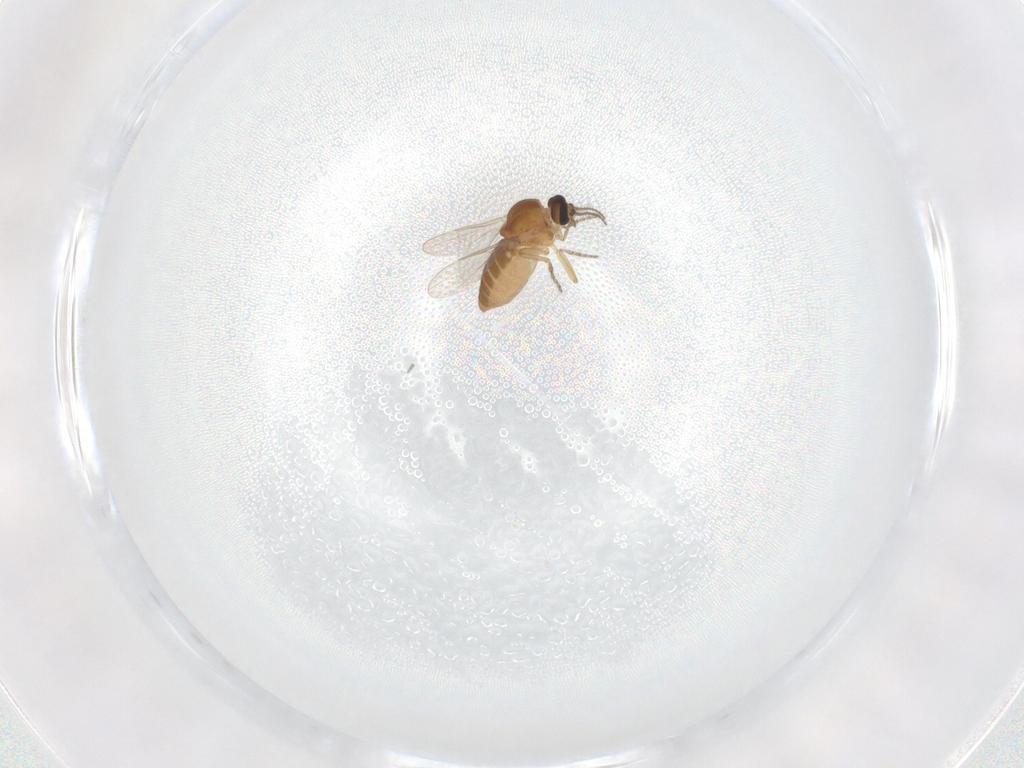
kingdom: Animalia
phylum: Arthropoda
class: Insecta
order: Diptera
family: Ceratopogonidae
